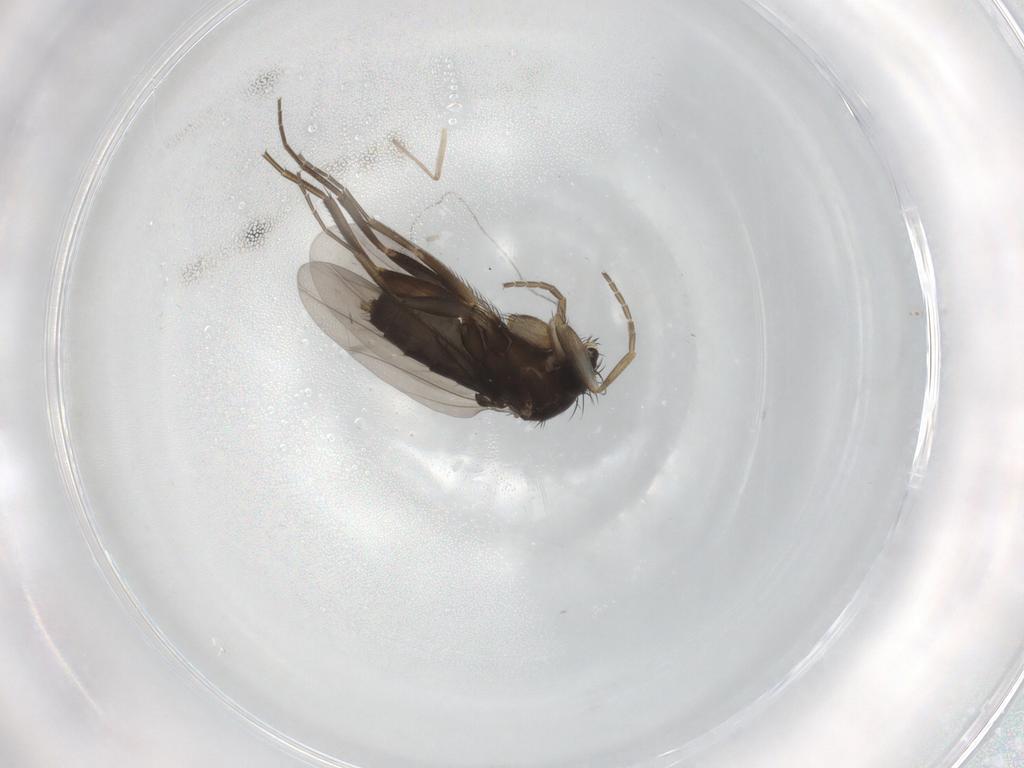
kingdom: Animalia
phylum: Arthropoda
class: Insecta
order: Diptera
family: Phoridae
